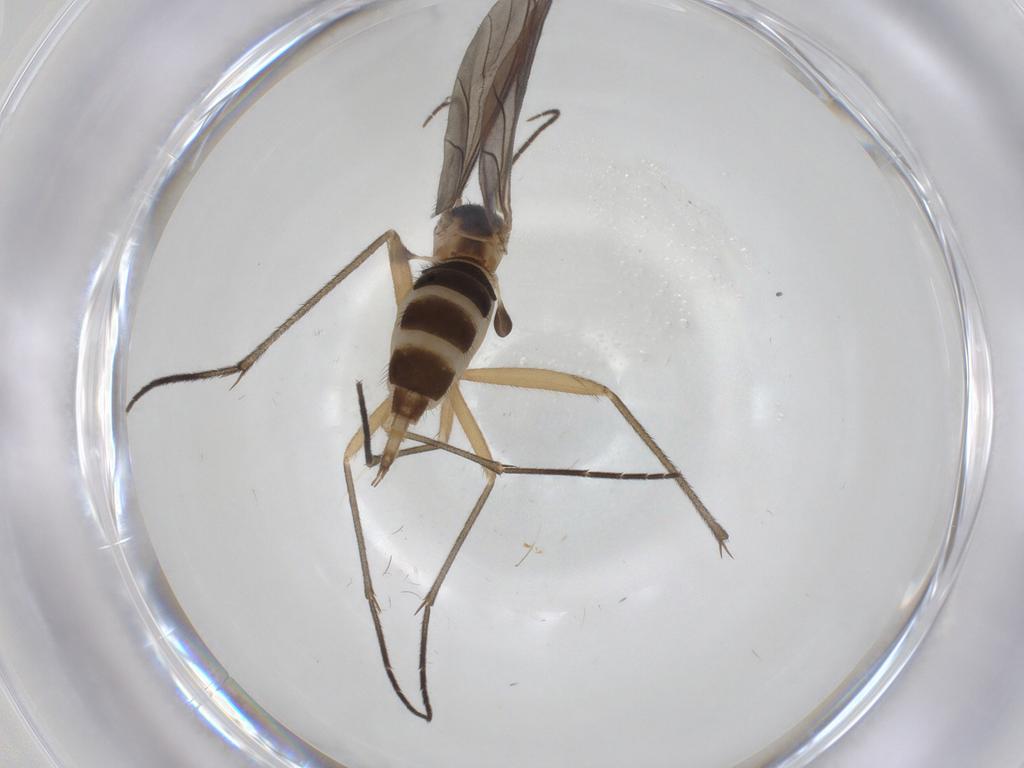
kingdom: Animalia
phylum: Arthropoda
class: Insecta
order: Diptera
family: Sciaridae
